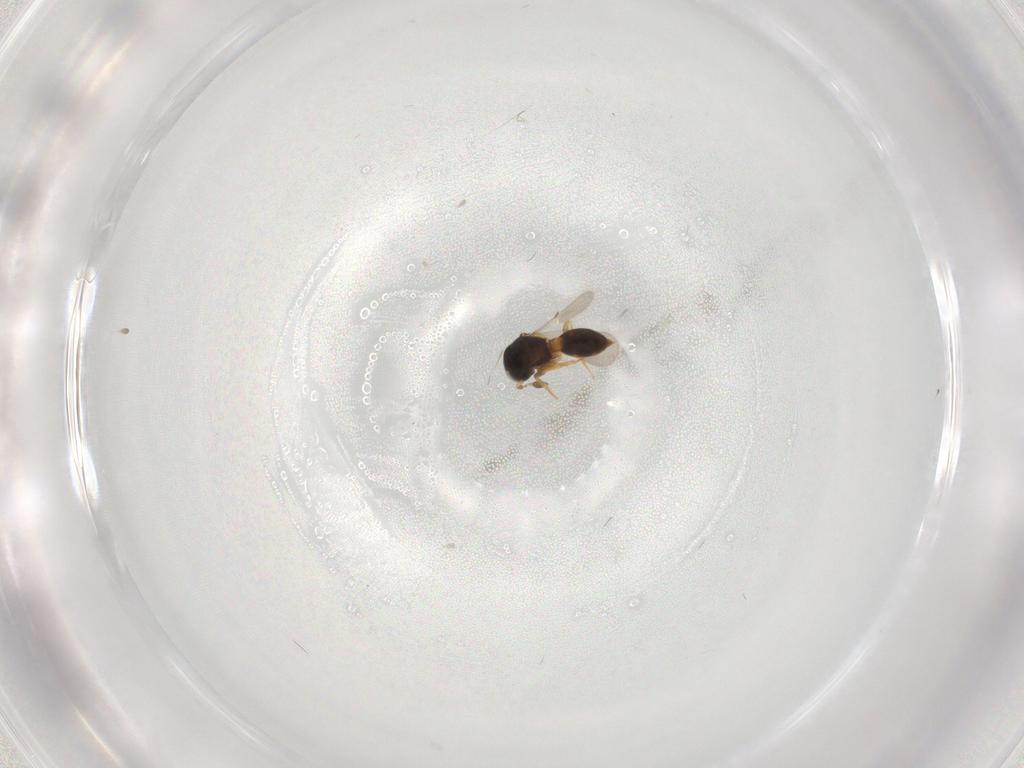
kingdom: Animalia
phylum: Arthropoda
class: Insecta
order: Hymenoptera
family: Scelionidae
